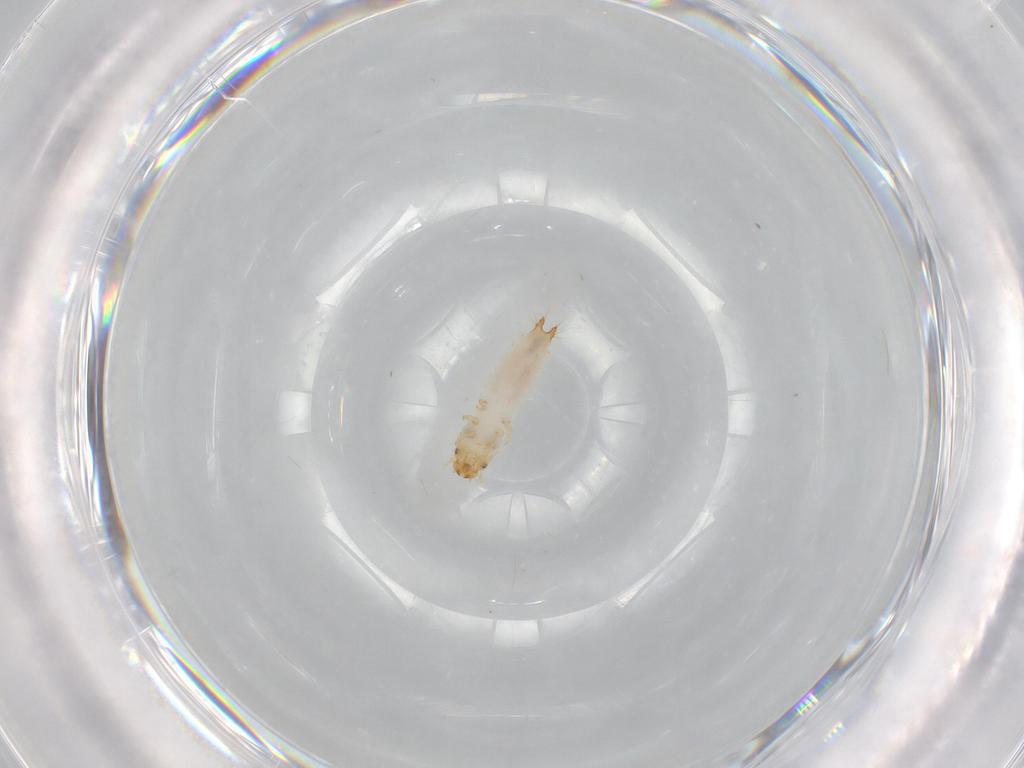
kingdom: Animalia
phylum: Arthropoda
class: Insecta
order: Coleoptera
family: Nitidulidae
